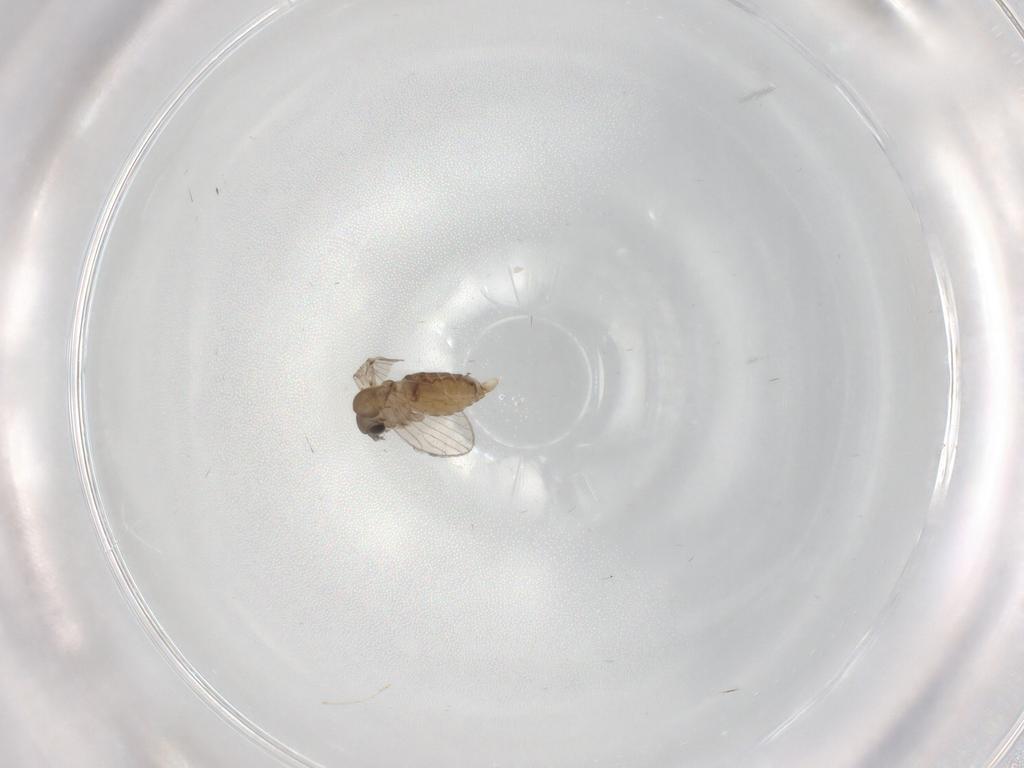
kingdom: Animalia
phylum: Arthropoda
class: Insecta
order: Diptera
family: Psychodidae
